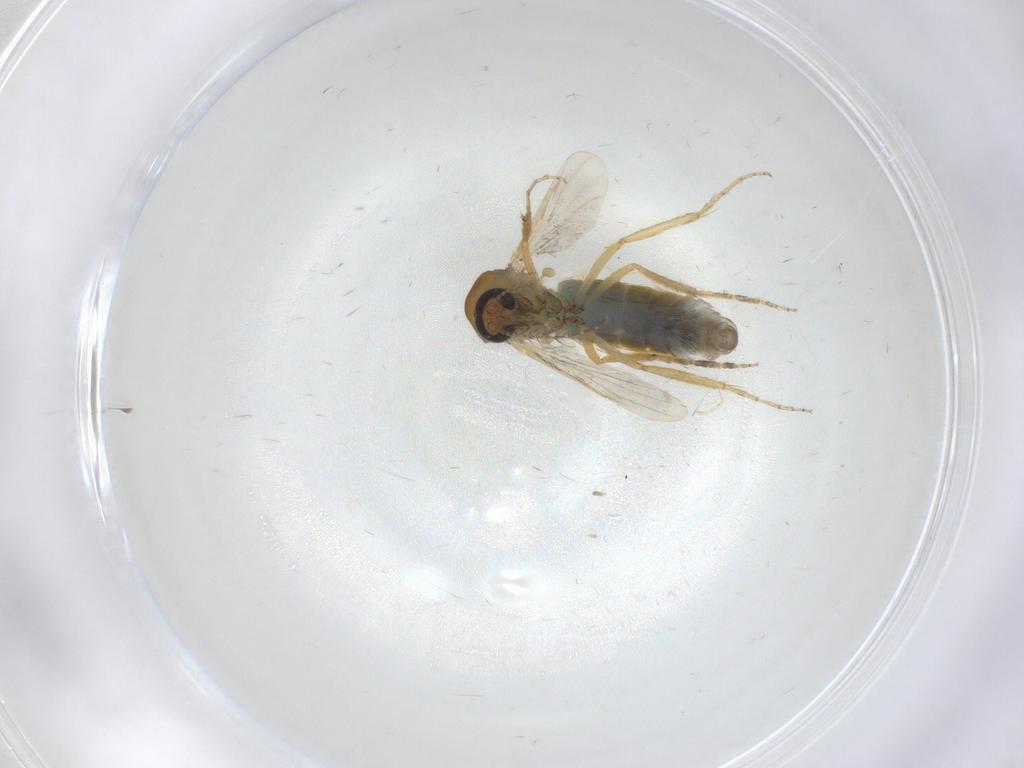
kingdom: Animalia
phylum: Arthropoda
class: Insecta
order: Diptera
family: Ceratopogonidae
